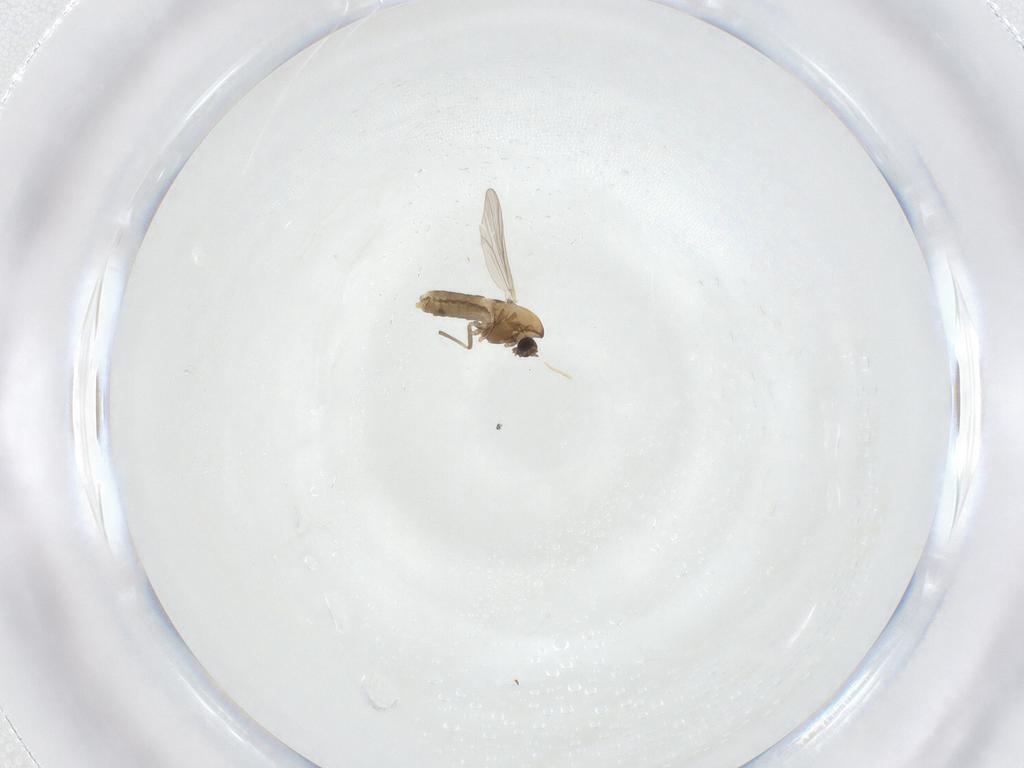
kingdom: Animalia
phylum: Arthropoda
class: Insecta
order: Diptera
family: Chironomidae
